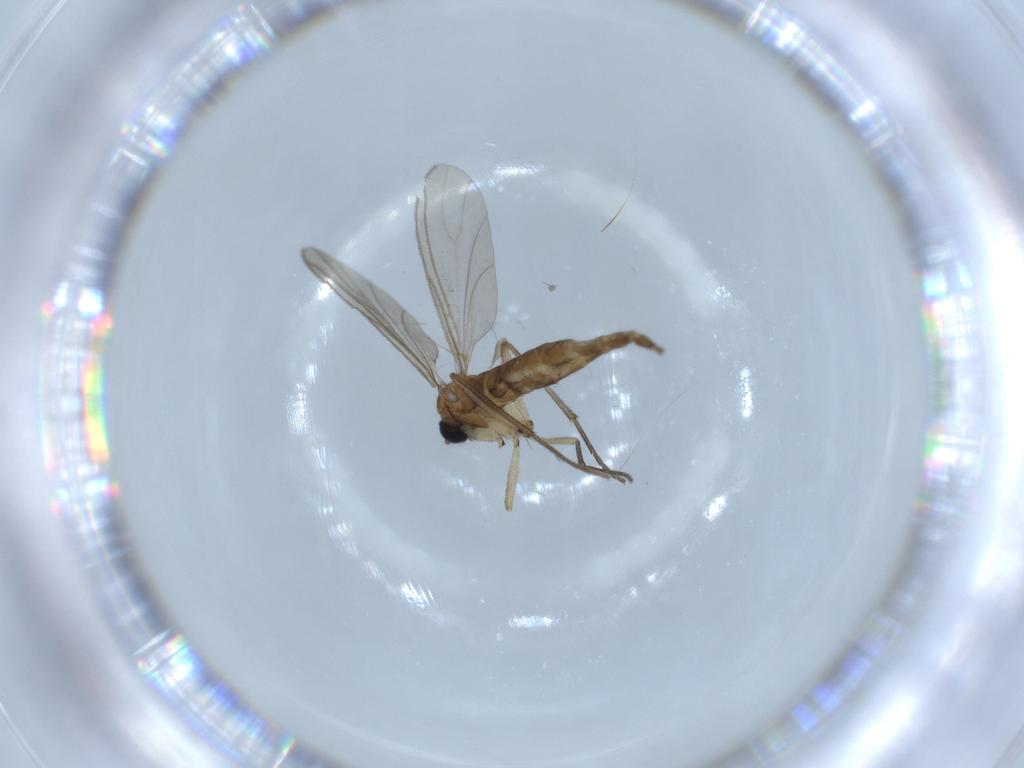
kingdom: Animalia
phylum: Arthropoda
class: Insecta
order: Diptera
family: Sciaridae
